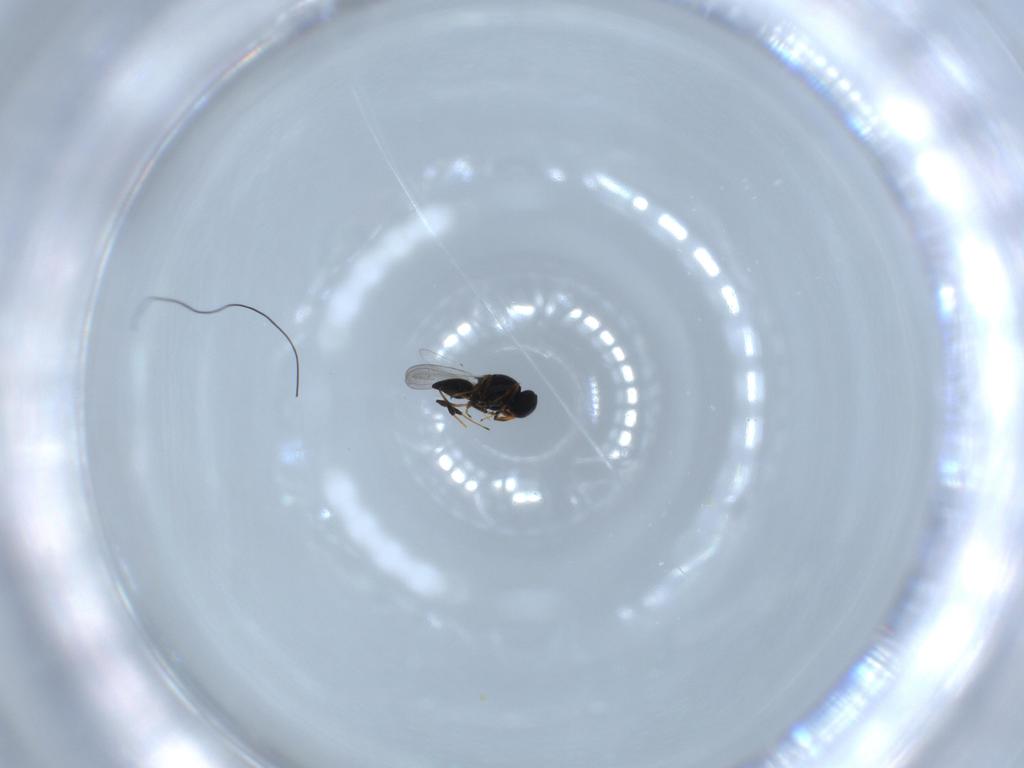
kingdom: Animalia
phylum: Arthropoda
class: Insecta
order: Hymenoptera
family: Platygastridae
